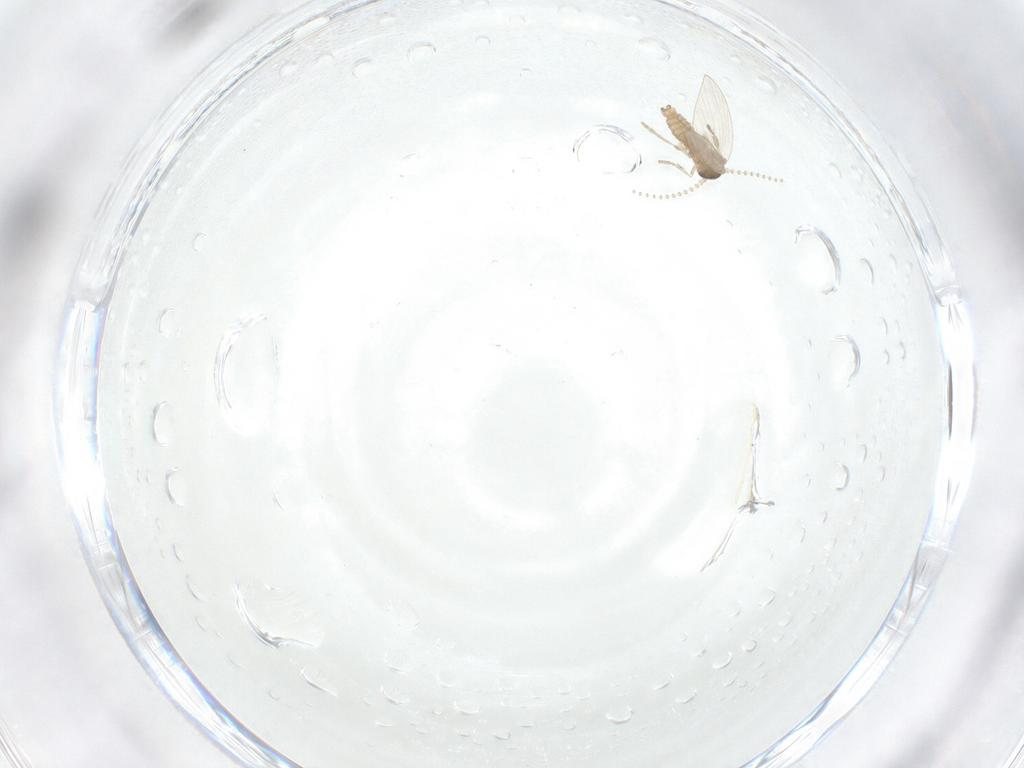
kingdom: Animalia
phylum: Arthropoda
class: Insecta
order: Diptera
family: Psychodidae
